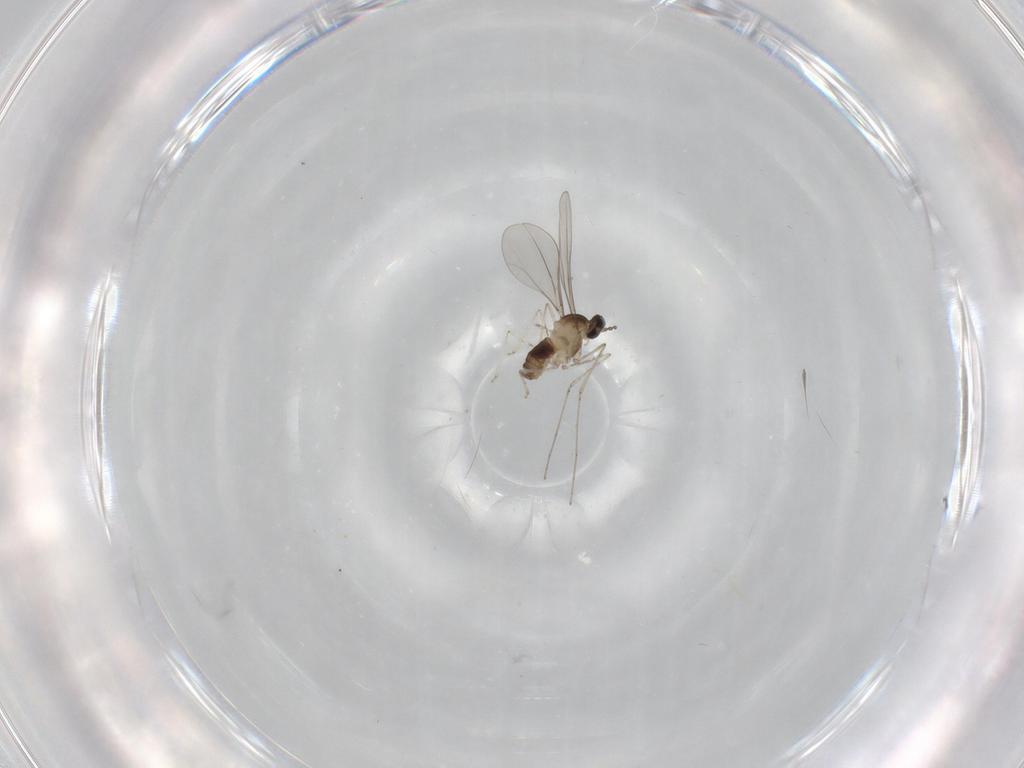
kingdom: Animalia
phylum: Arthropoda
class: Insecta
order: Diptera
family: Cecidomyiidae
